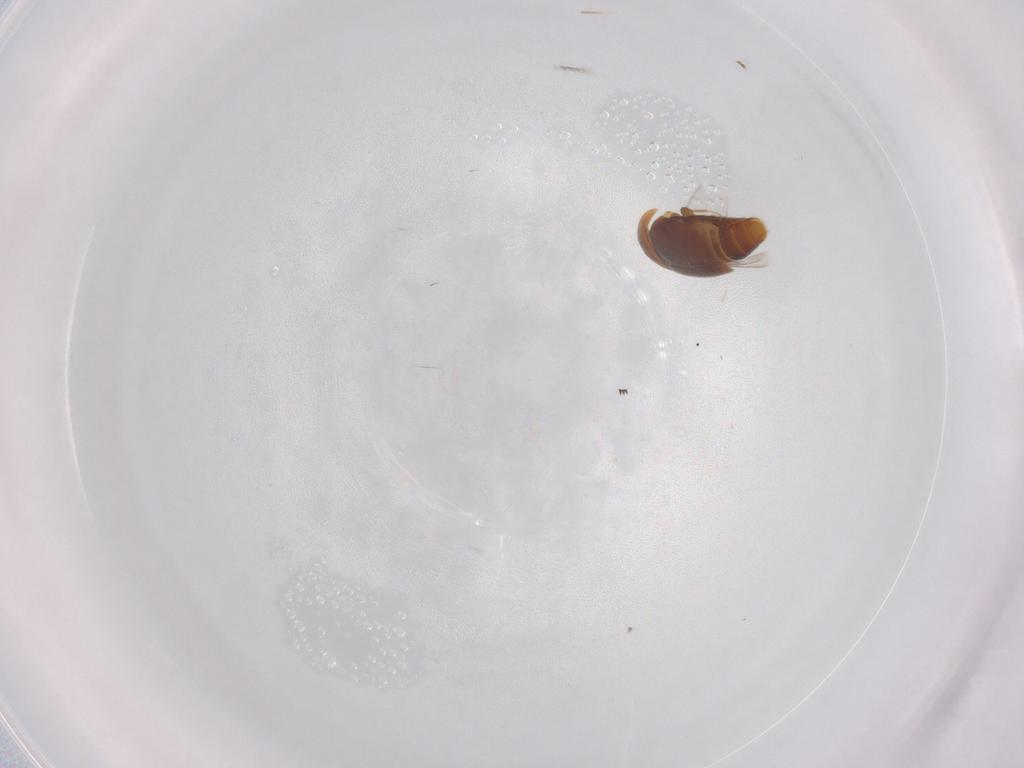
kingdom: Animalia
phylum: Arthropoda
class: Insecta
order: Coleoptera
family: Corylophidae
